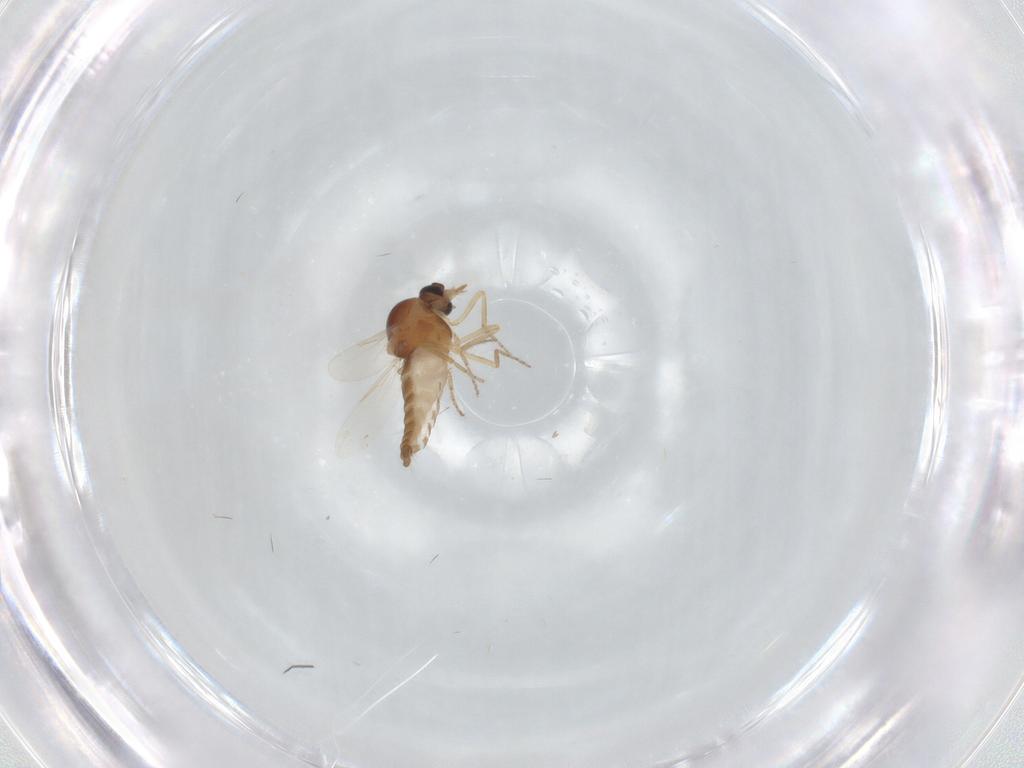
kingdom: Animalia
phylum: Arthropoda
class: Insecta
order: Diptera
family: Ceratopogonidae
